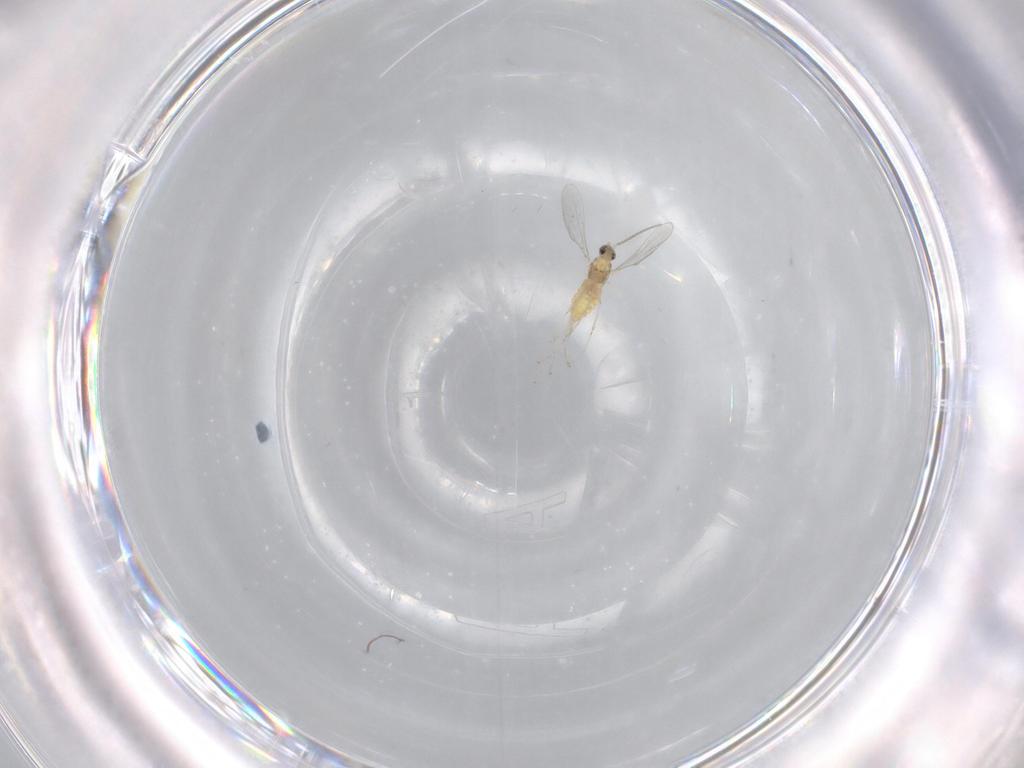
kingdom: Animalia
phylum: Arthropoda
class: Insecta
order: Diptera
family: Cecidomyiidae
